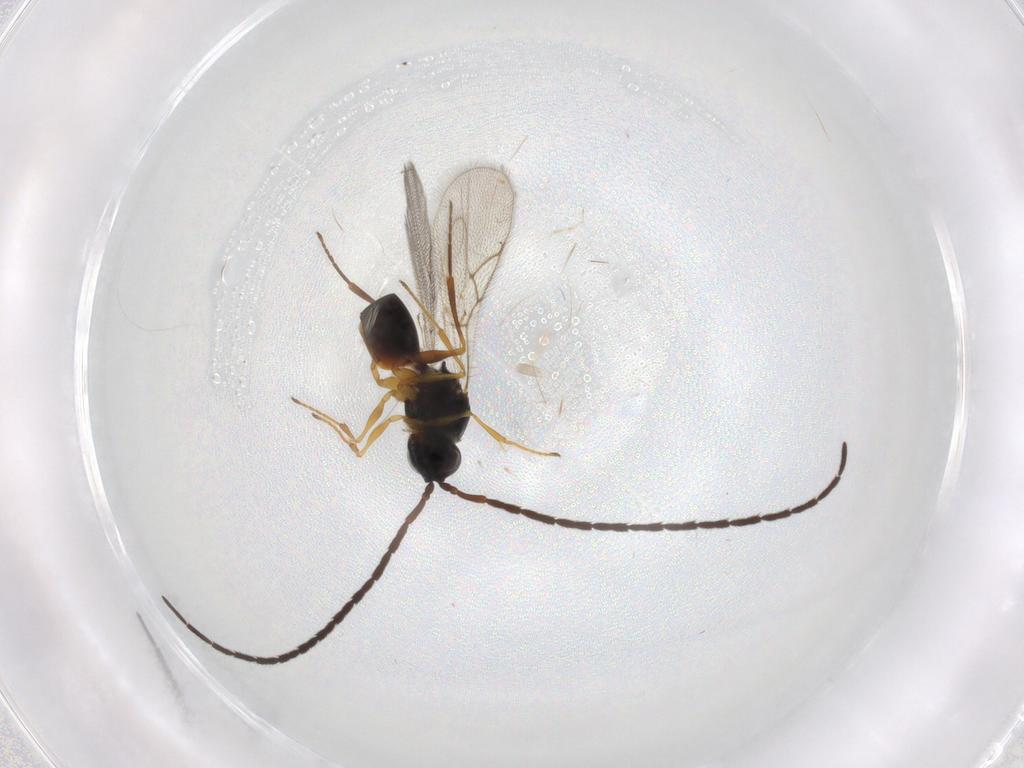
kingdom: Animalia
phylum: Arthropoda
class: Insecta
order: Hymenoptera
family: Figitidae
